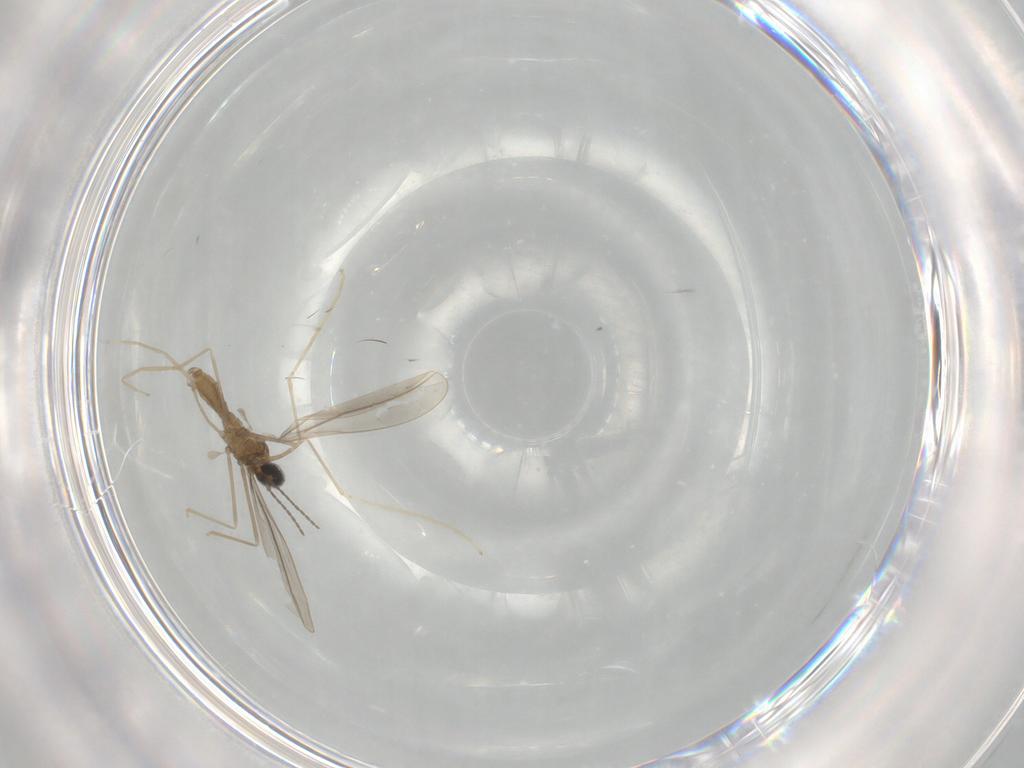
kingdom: Animalia
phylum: Arthropoda
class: Insecta
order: Diptera
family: Cecidomyiidae
